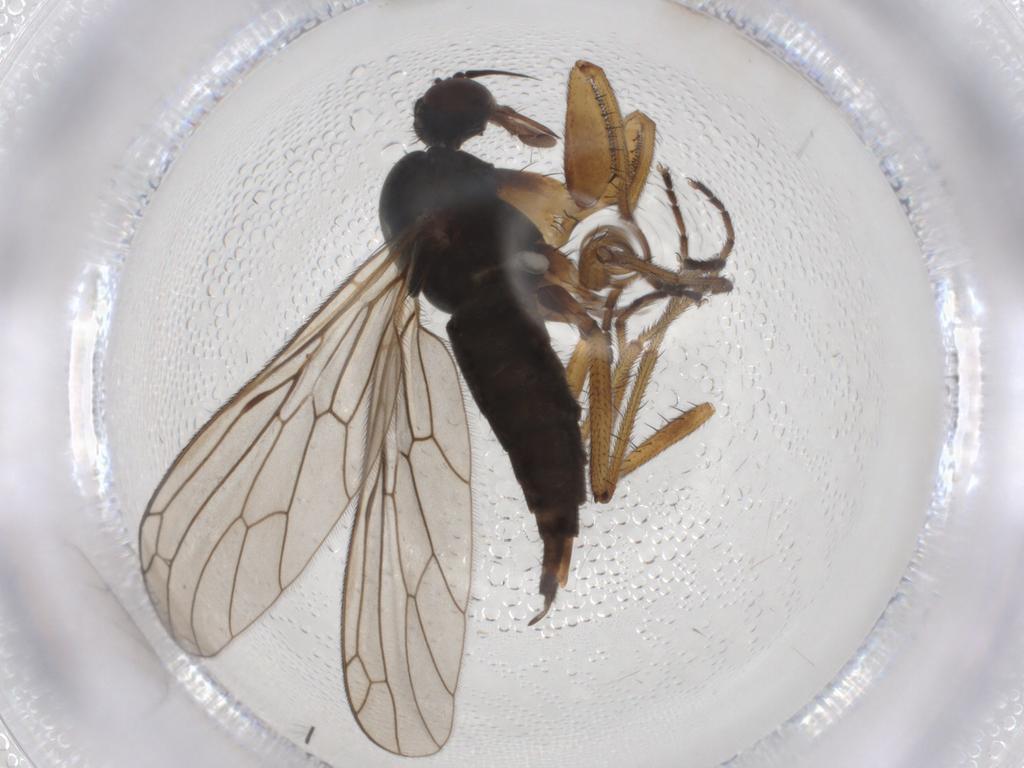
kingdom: Animalia
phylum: Arthropoda
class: Insecta
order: Diptera
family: Chironomidae
